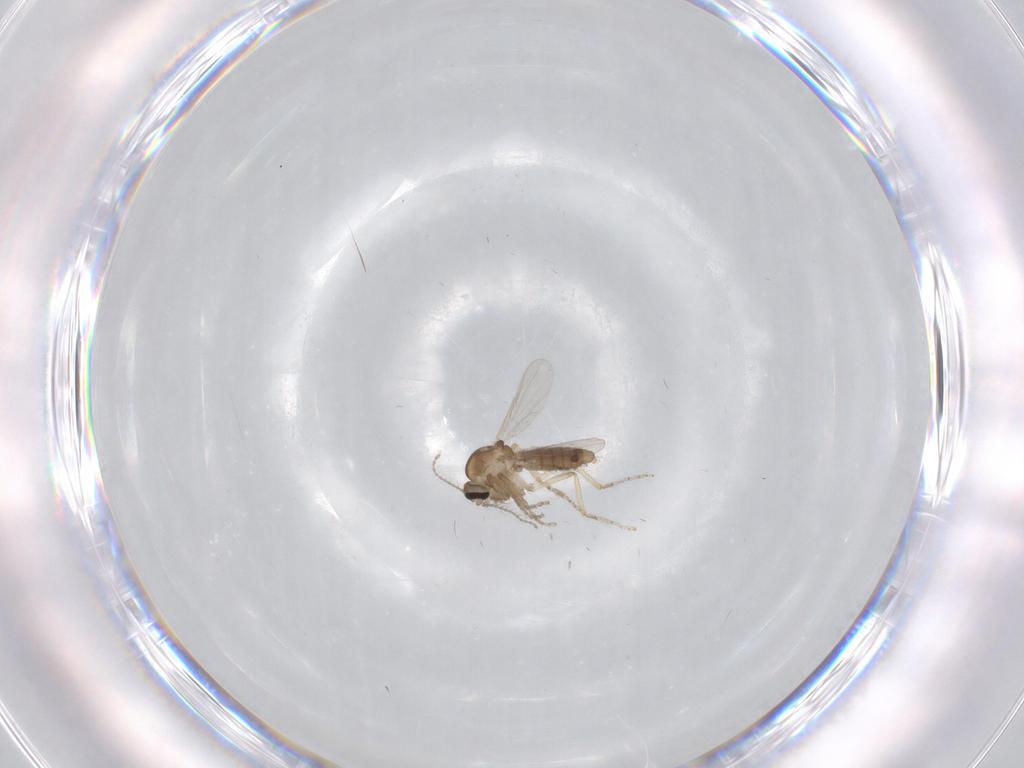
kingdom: Animalia
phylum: Arthropoda
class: Insecta
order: Diptera
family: Ceratopogonidae
